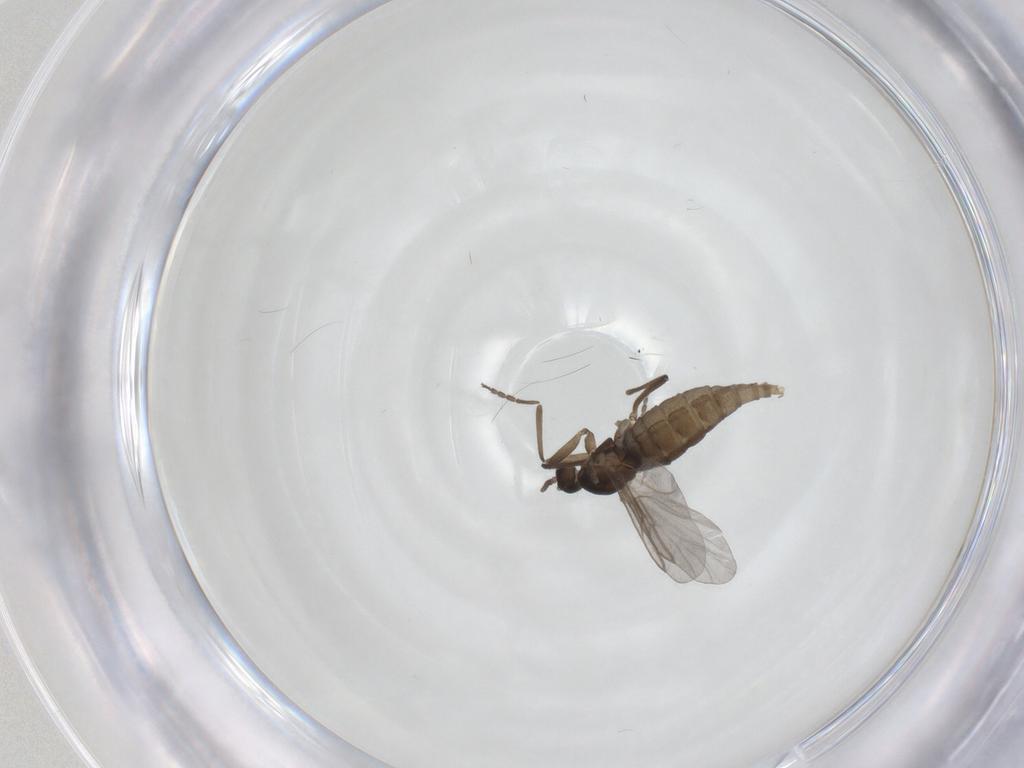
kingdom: Animalia
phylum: Arthropoda
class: Insecta
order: Diptera
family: Cecidomyiidae
